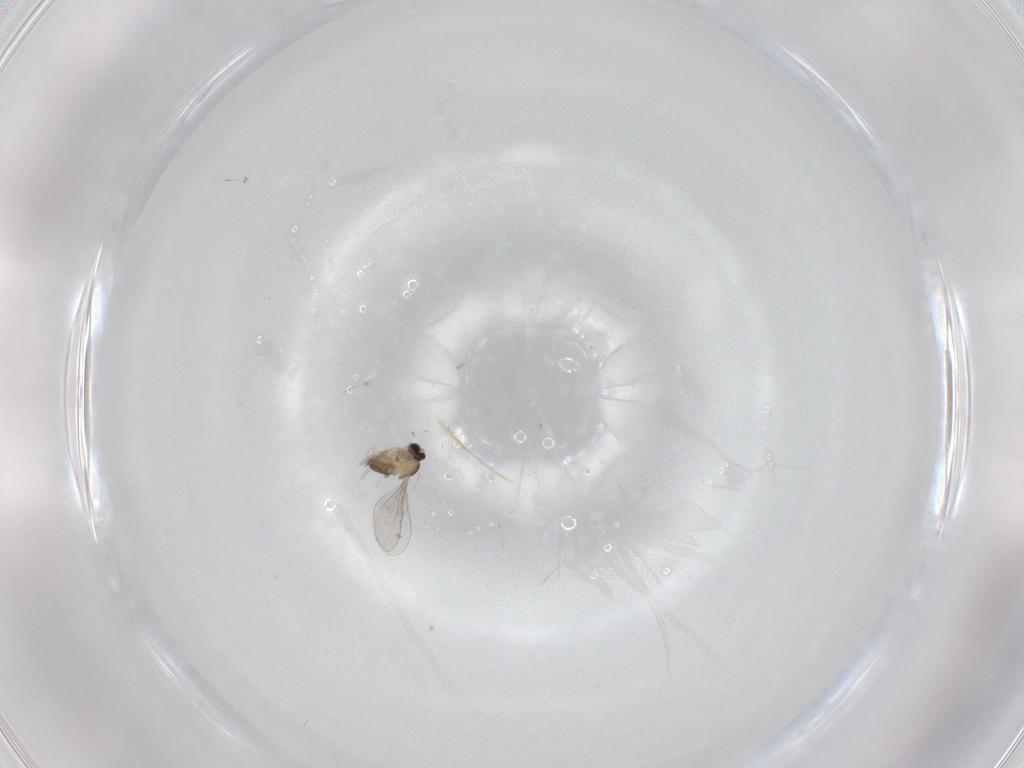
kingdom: Animalia
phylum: Arthropoda
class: Insecta
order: Diptera
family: Cecidomyiidae
